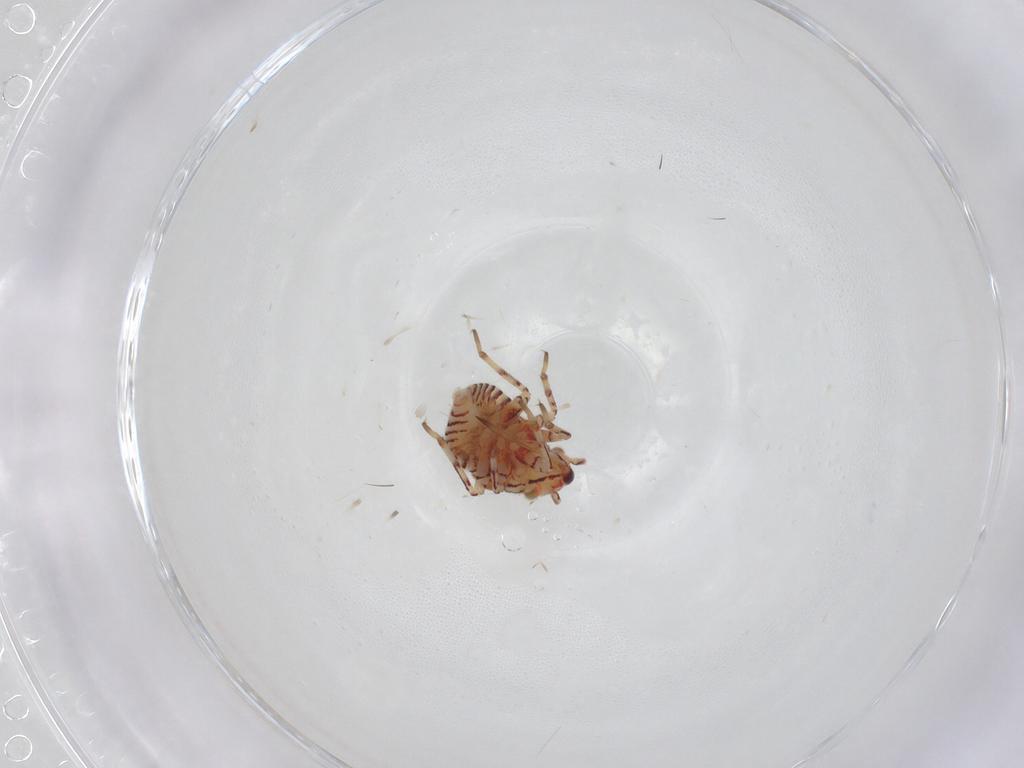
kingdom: Animalia
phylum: Arthropoda
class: Insecta
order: Hemiptera
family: Miridae
